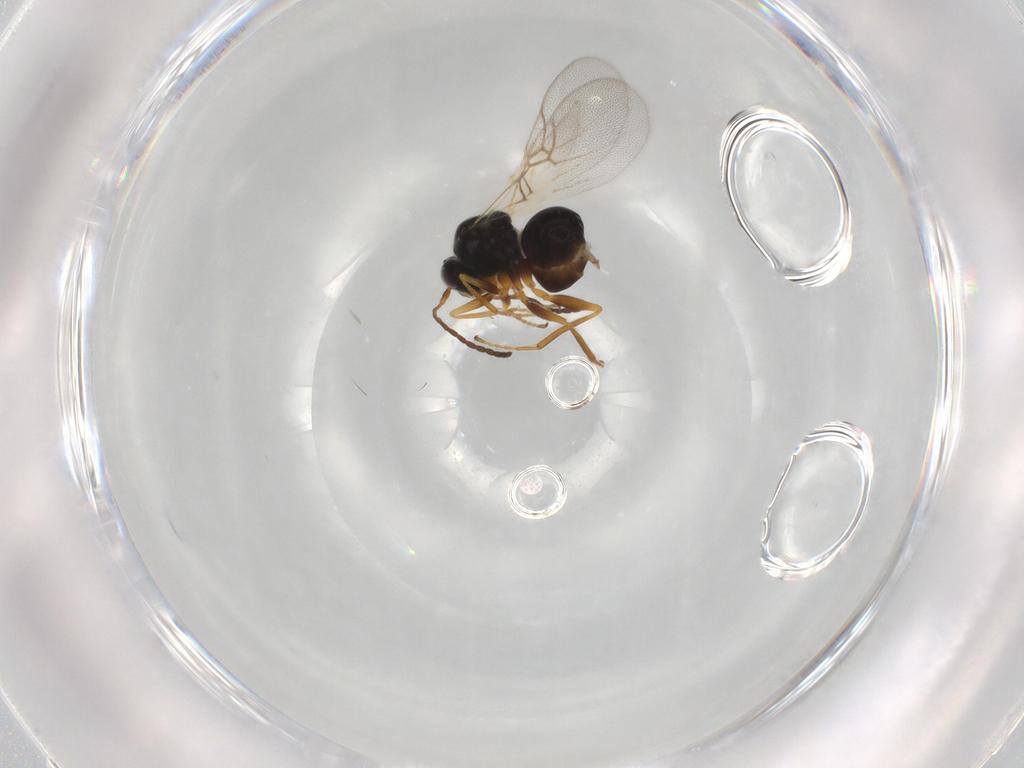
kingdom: Animalia
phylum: Arthropoda
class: Insecta
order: Hymenoptera
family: Figitidae
